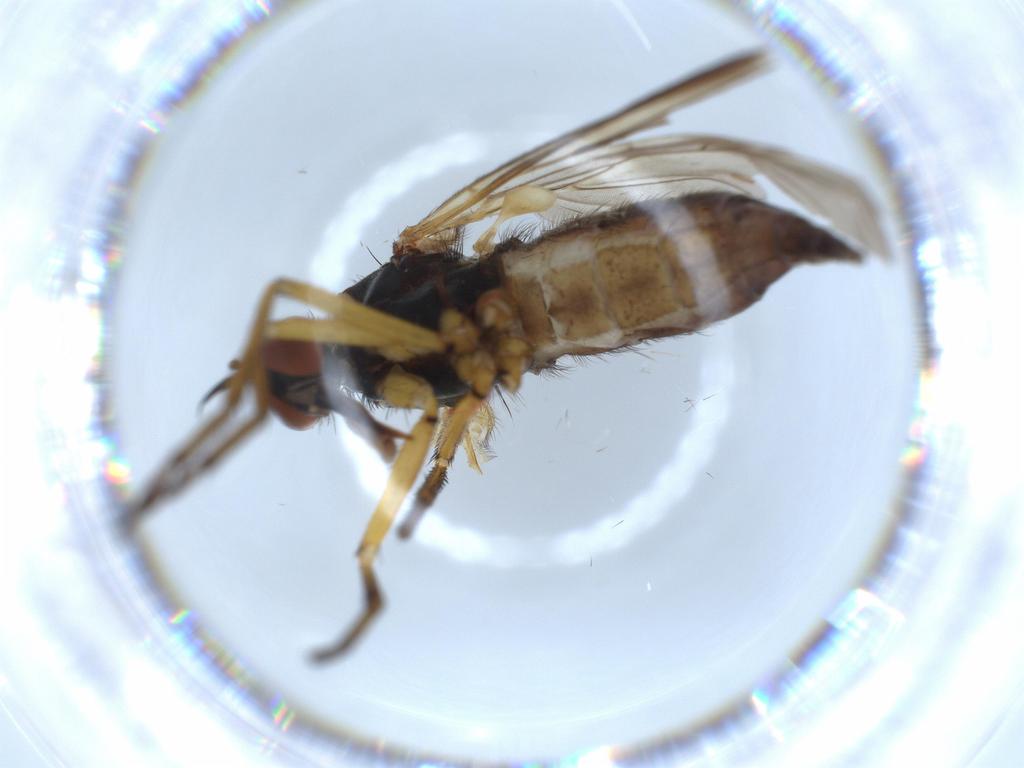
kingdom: Animalia
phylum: Arthropoda
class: Insecta
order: Diptera
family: Empididae
